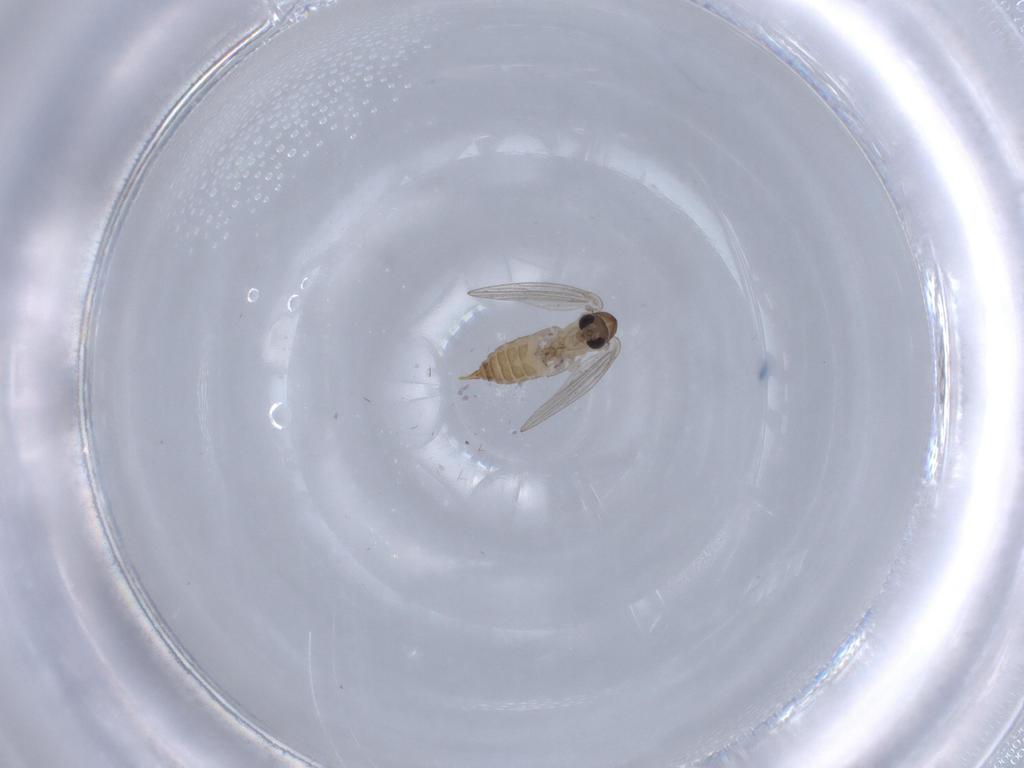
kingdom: Animalia
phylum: Arthropoda
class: Insecta
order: Diptera
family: Psychodidae
